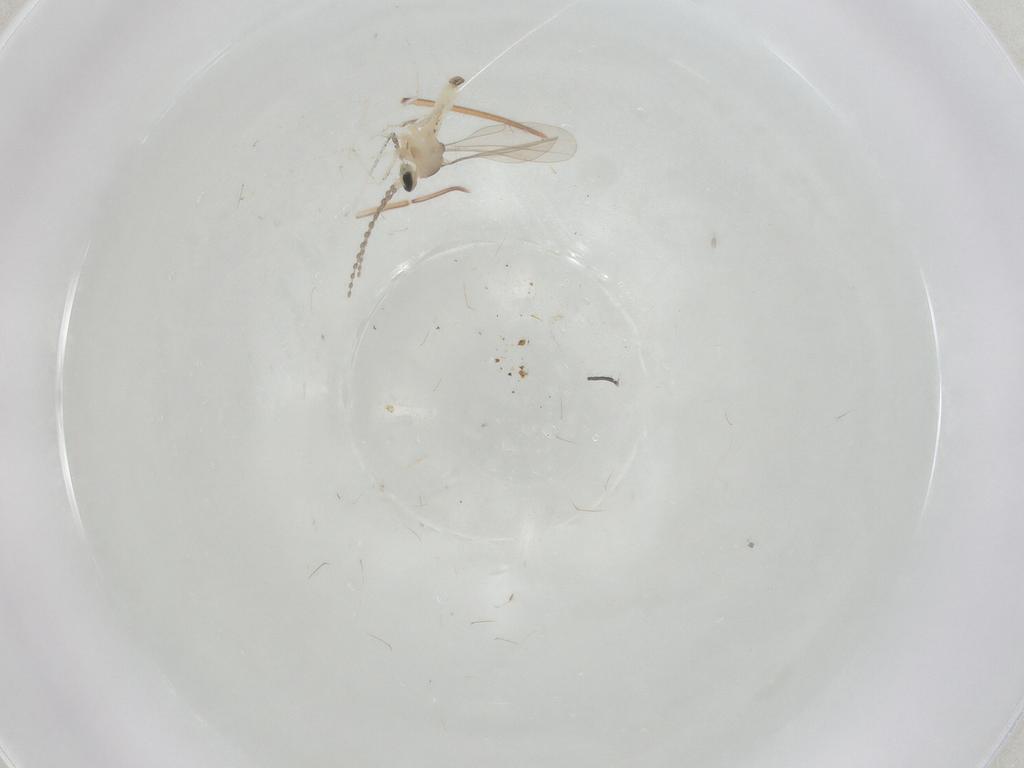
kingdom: Animalia
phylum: Arthropoda
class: Insecta
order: Diptera
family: Cecidomyiidae
